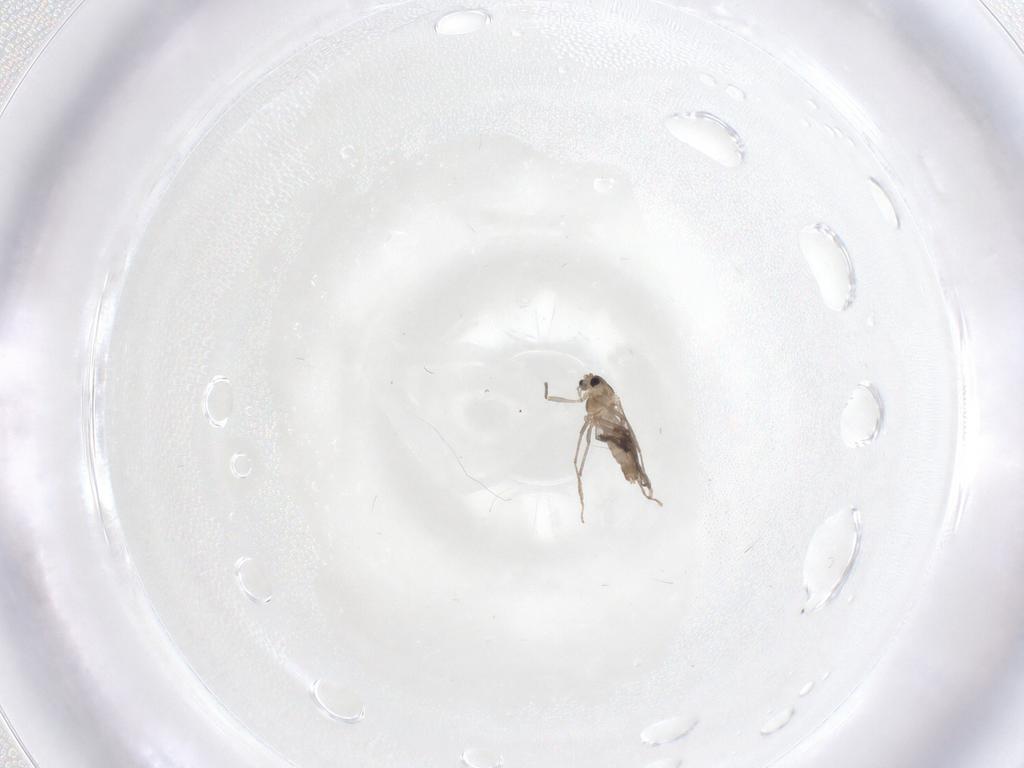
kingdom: Animalia
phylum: Arthropoda
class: Insecta
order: Diptera
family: Chironomidae
